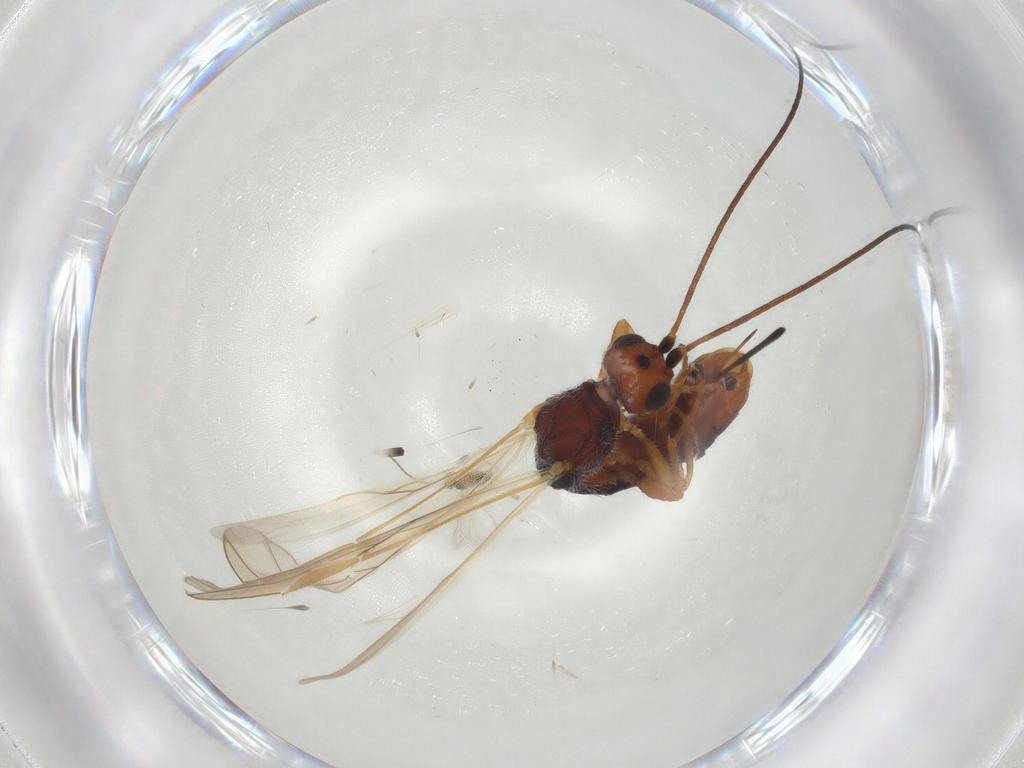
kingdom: Animalia
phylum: Arthropoda
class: Insecta
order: Hymenoptera
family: Braconidae
